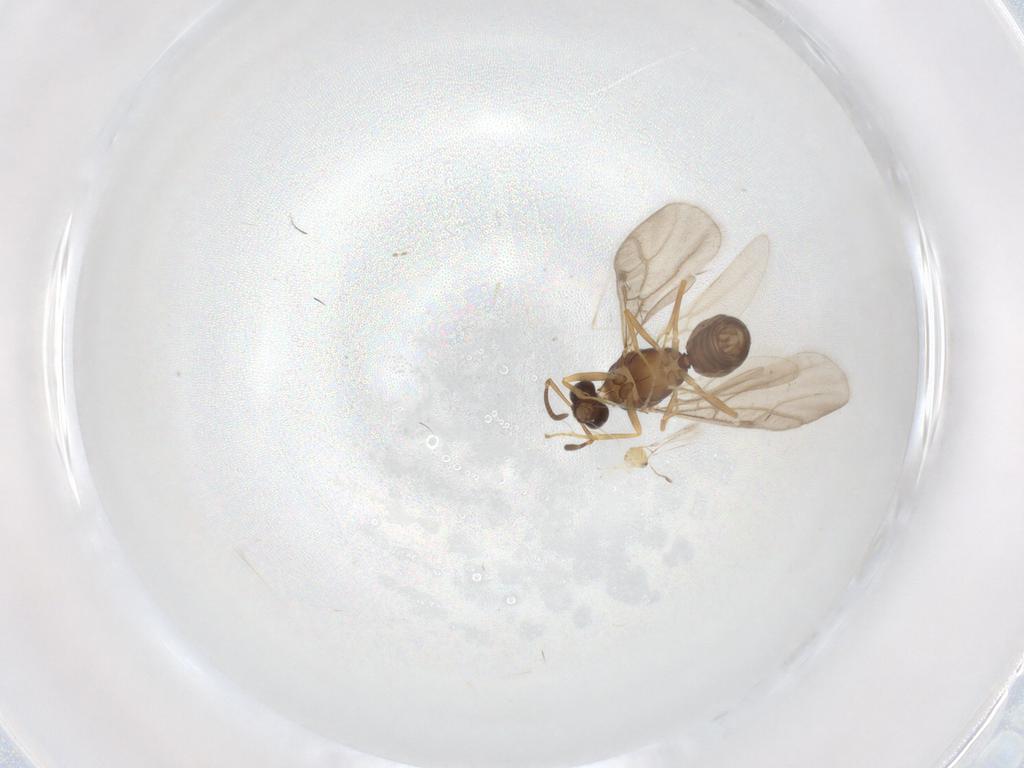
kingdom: Animalia
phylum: Arthropoda
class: Insecta
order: Hymenoptera
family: Formicidae
